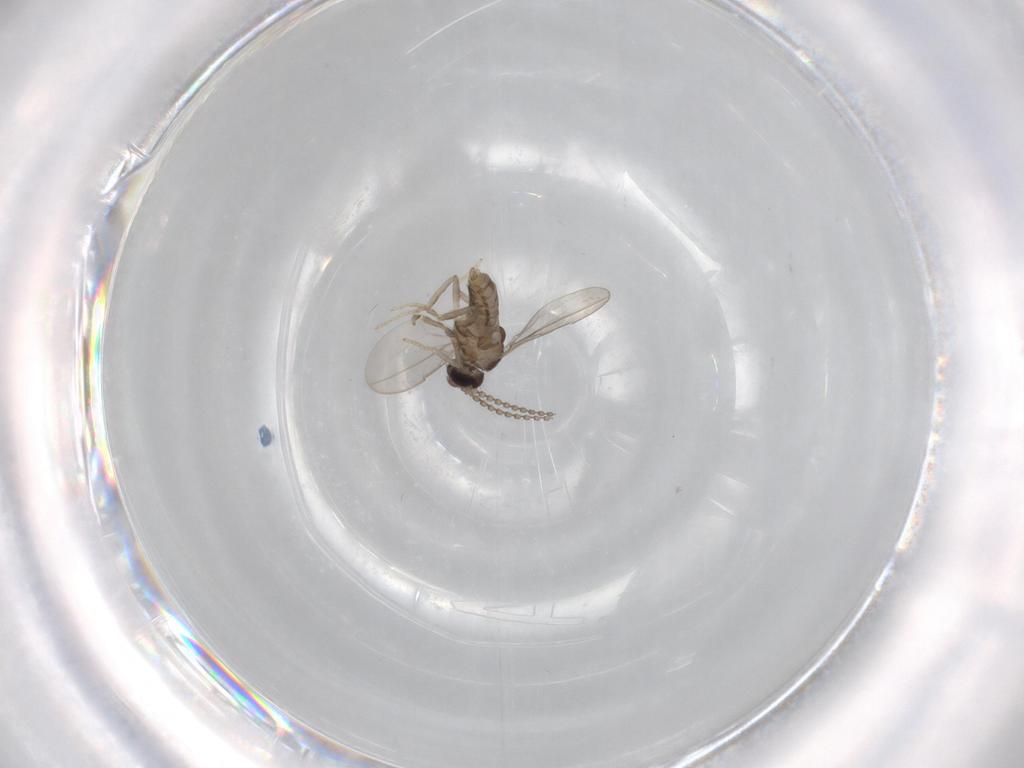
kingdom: Animalia
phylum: Arthropoda
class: Insecta
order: Diptera
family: Cecidomyiidae
